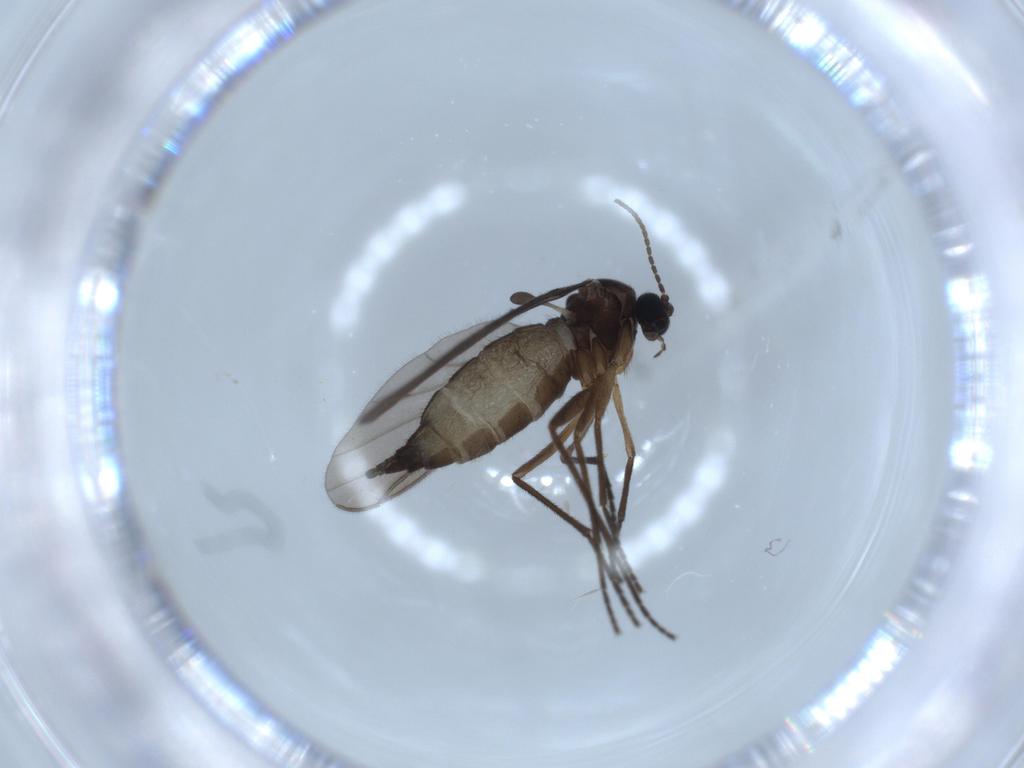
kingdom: Animalia
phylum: Arthropoda
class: Insecta
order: Diptera
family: Sciaridae
